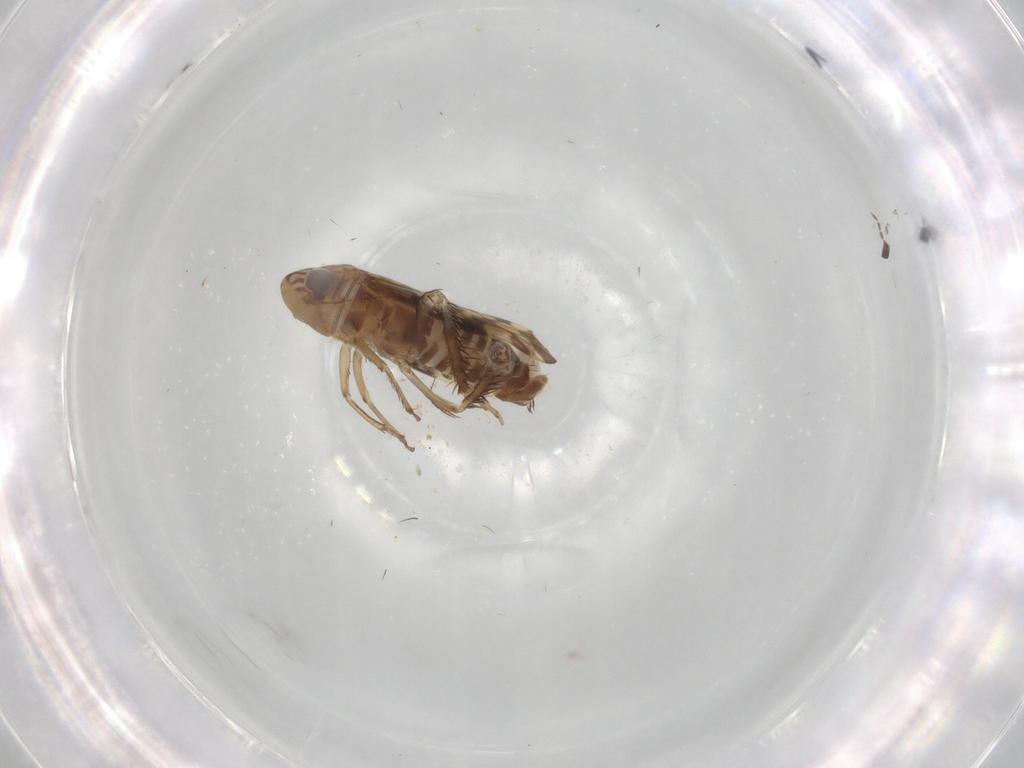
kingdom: Animalia
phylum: Arthropoda
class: Insecta
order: Hemiptera
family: Cicadellidae
